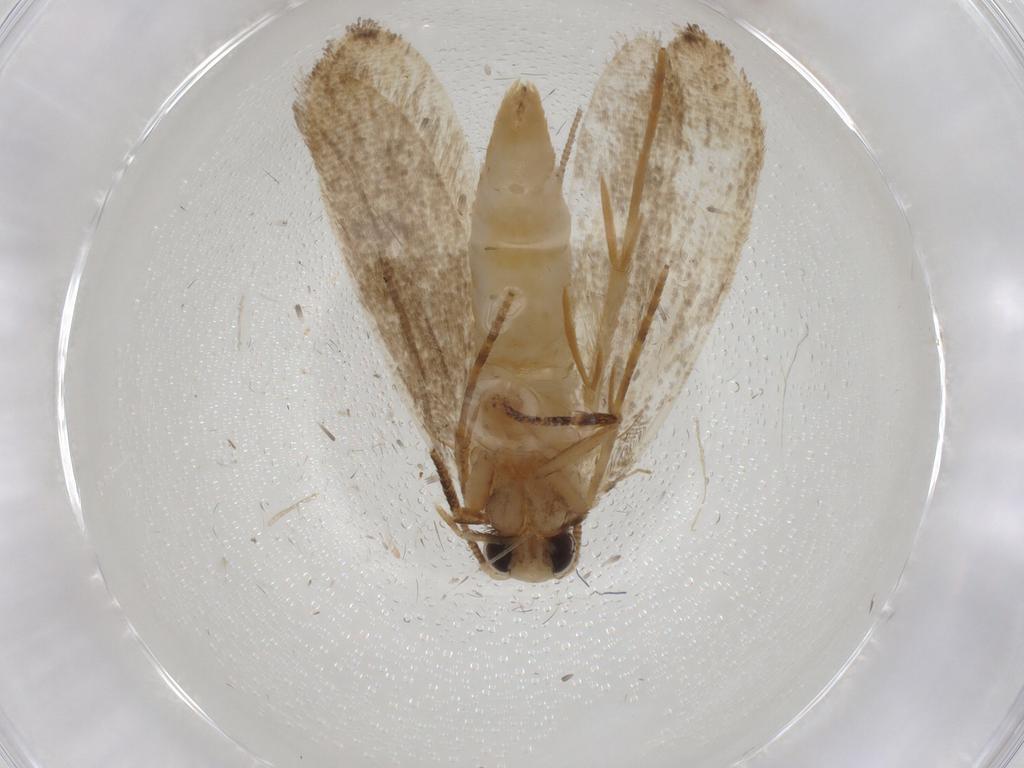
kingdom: Animalia
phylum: Arthropoda
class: Insecta
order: Lepidoptera
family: Tineidae
